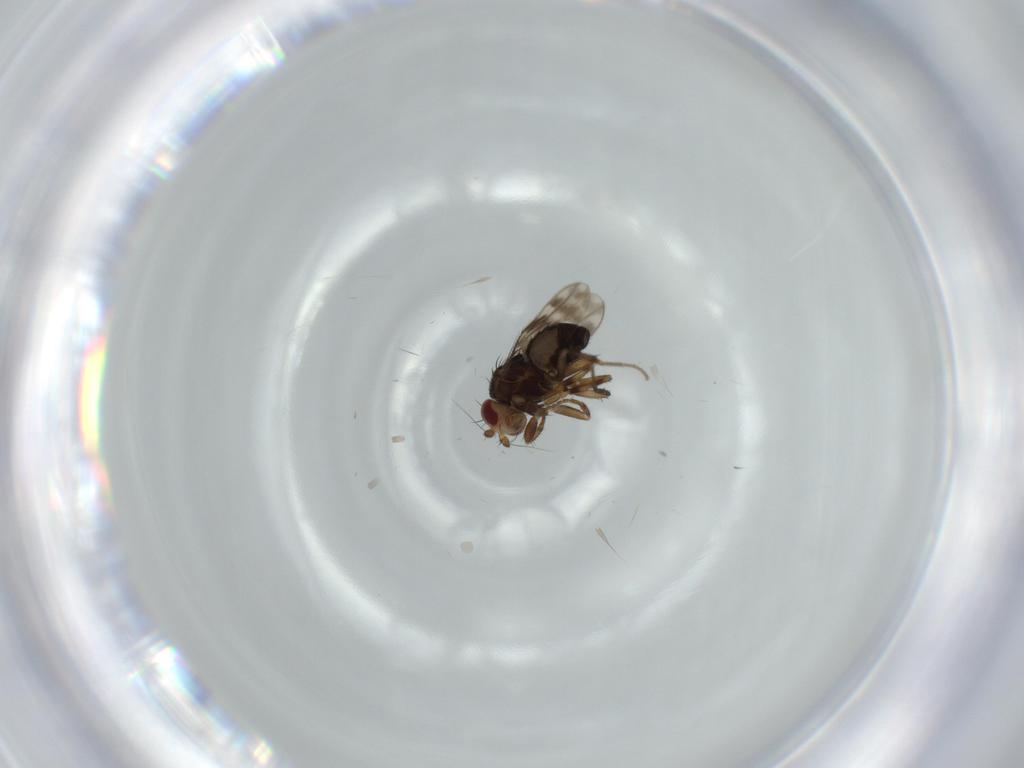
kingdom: Animalia
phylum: Arthropoda
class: Insecta
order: Diptera
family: Sphaeroceridae
